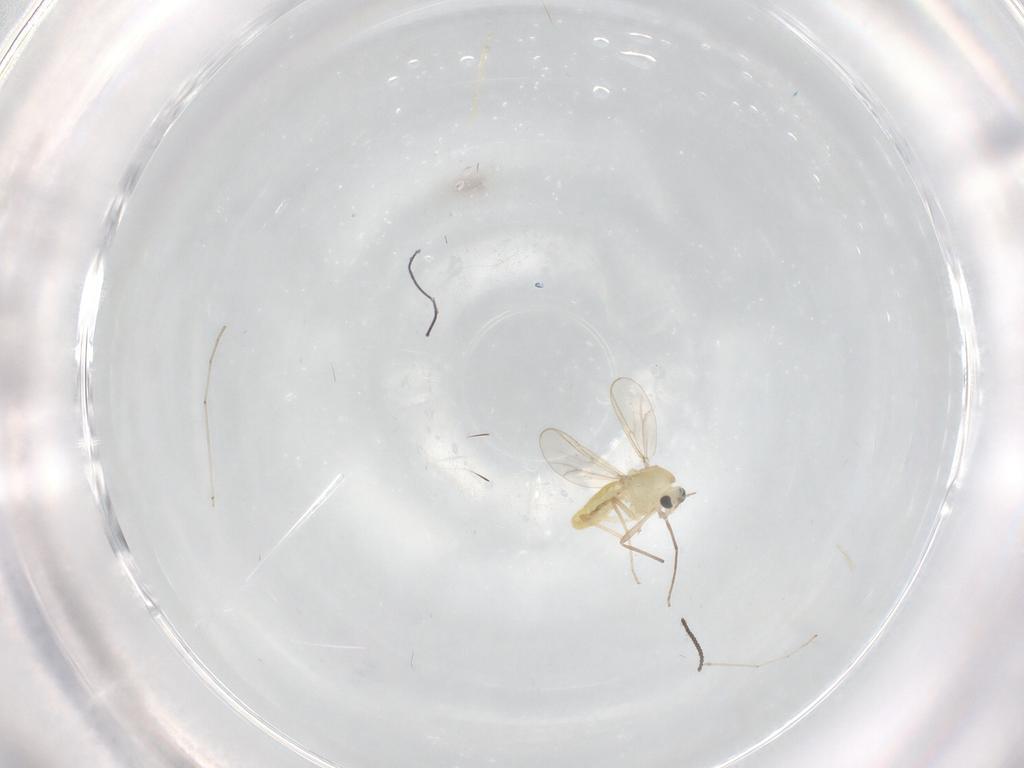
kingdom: Animalia
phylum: Arthropoda
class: Insecta
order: Diptera
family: Chironomidae
